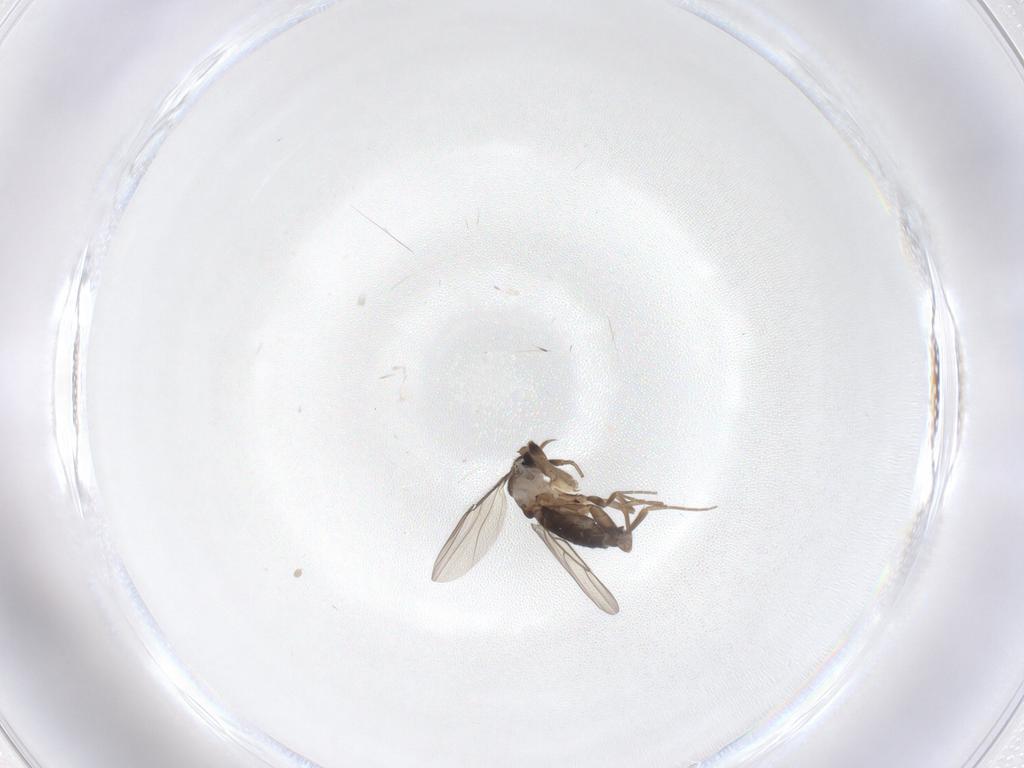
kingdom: Animalia
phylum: Arthropoda
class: Insecta
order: Diptera
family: Phoridae
